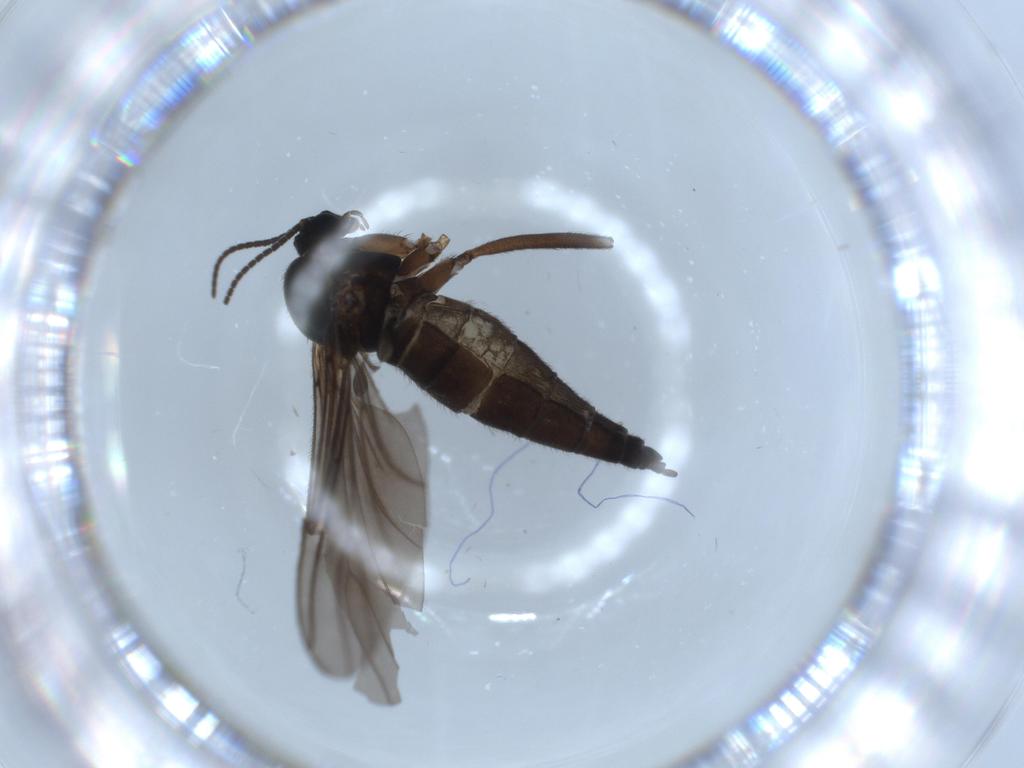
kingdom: Animalia
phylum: Arthropoda
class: Insecta
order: Diptera
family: Sciaridae
